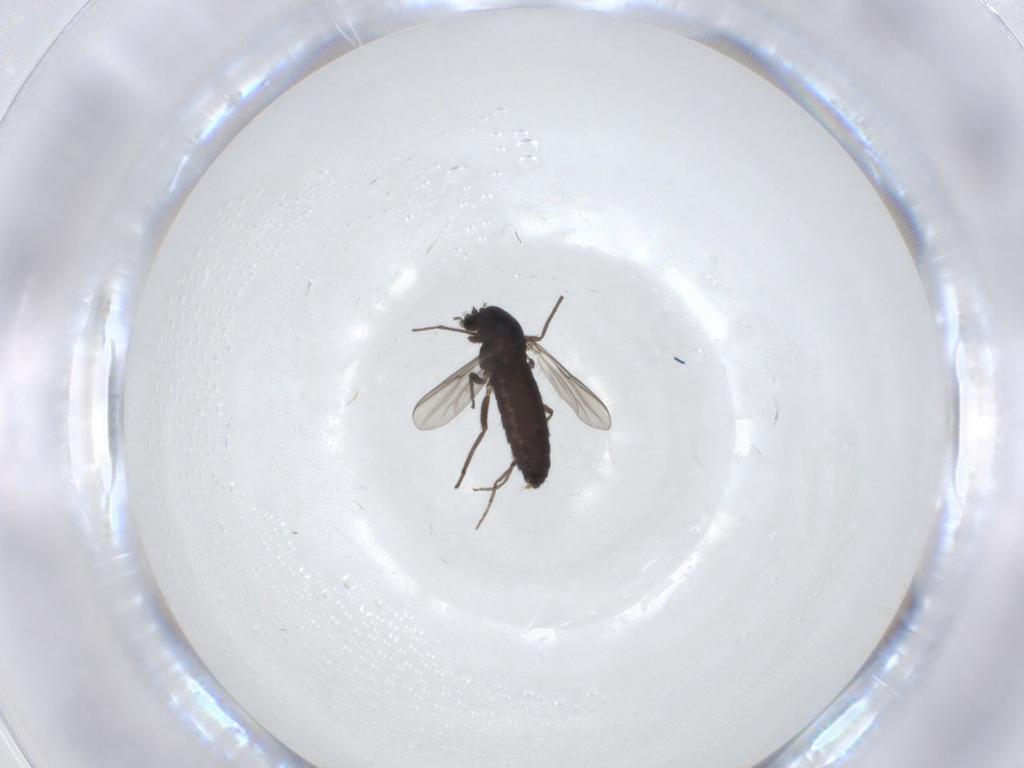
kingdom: Animalia
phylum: Arthropoda
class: Insecta
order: Diptera
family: Chironomidae
